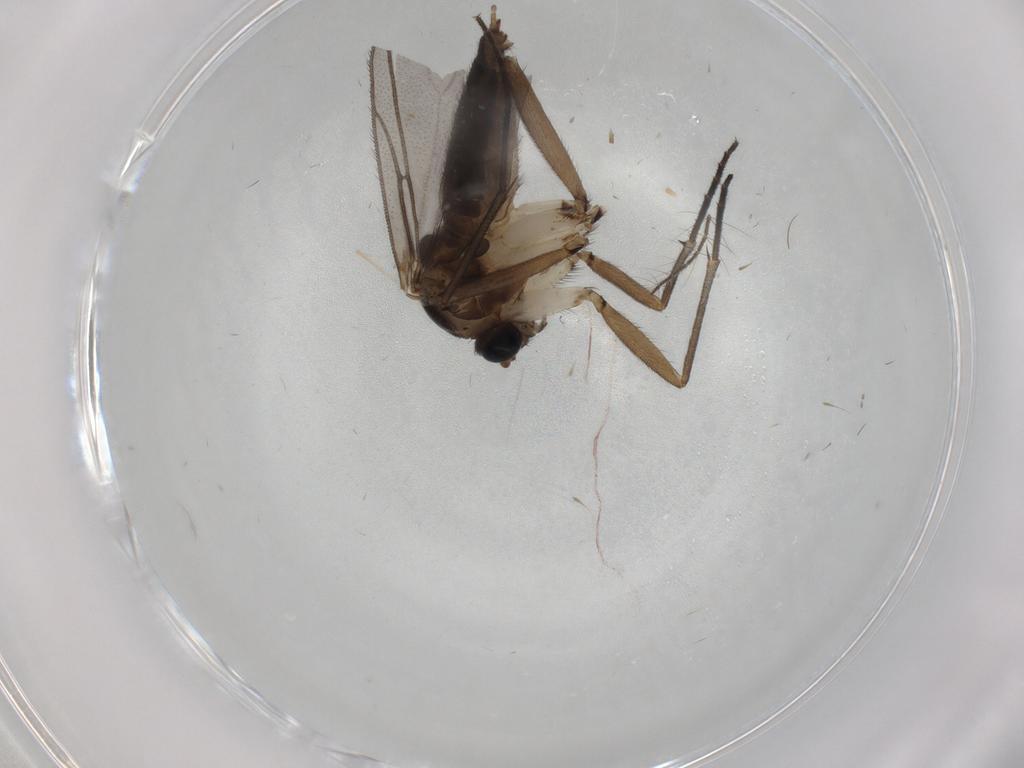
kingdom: Animalia
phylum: Arthropoda
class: Insecta
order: Diptera
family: Sciaridae
